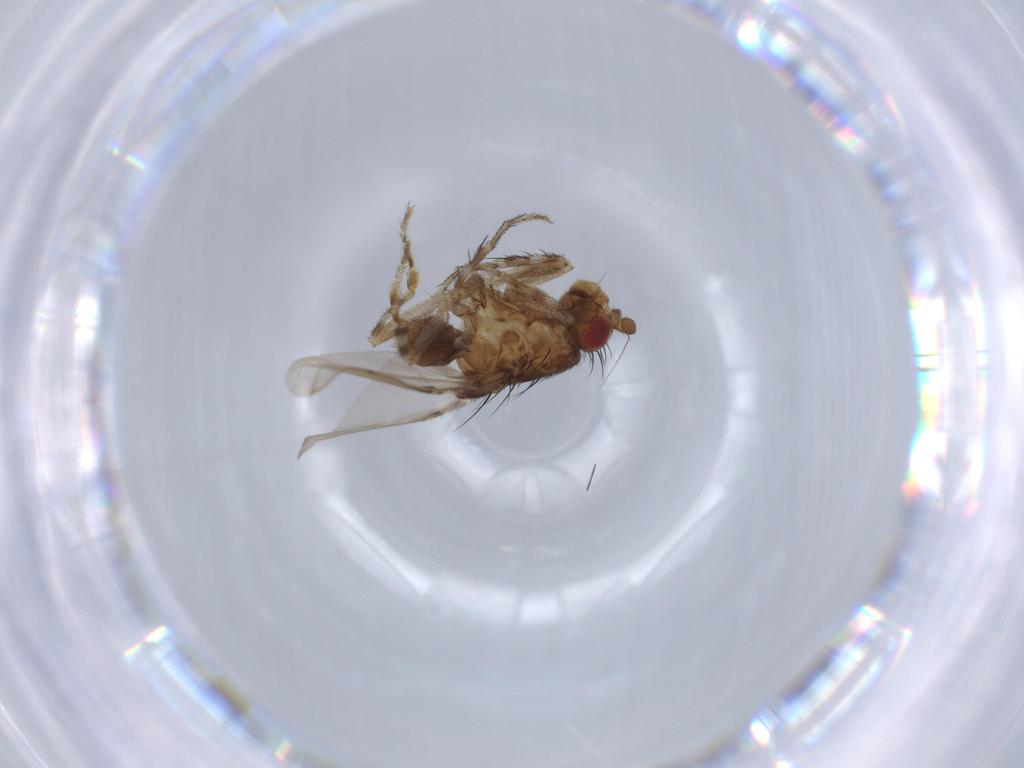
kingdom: Animalia
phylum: Arthropoda
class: Insecta
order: Diptera
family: Sphaeroceridae
